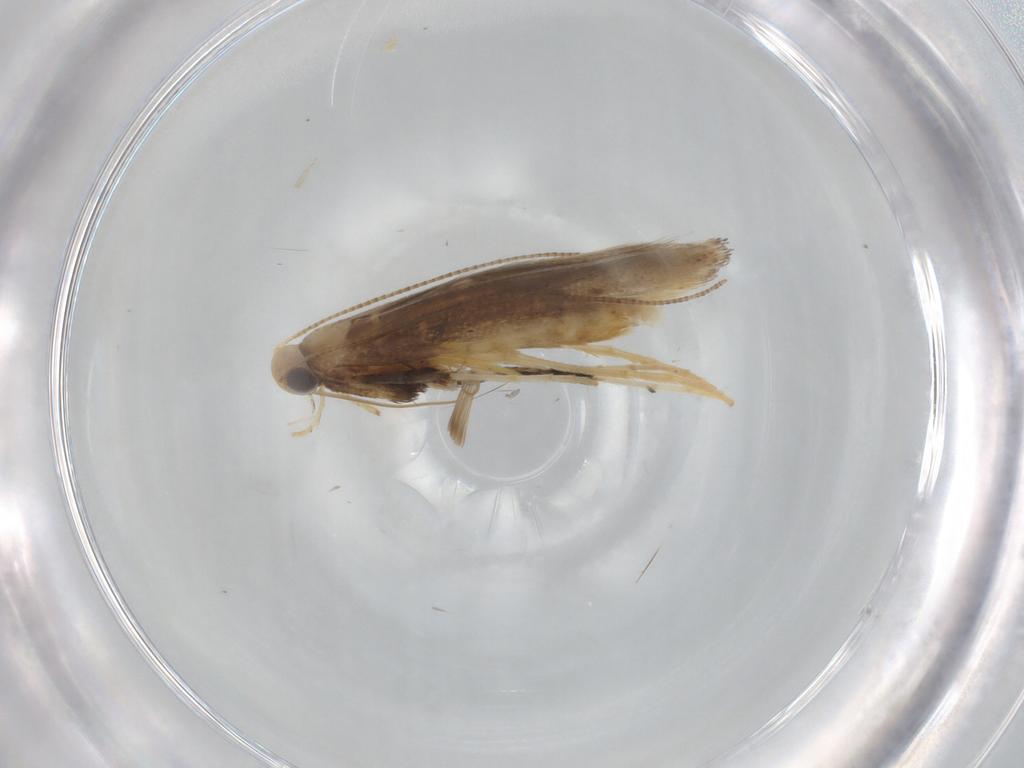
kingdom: Animalia
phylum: Arthropoda
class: Insecta
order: Lepidoptera
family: Gracillariidae
